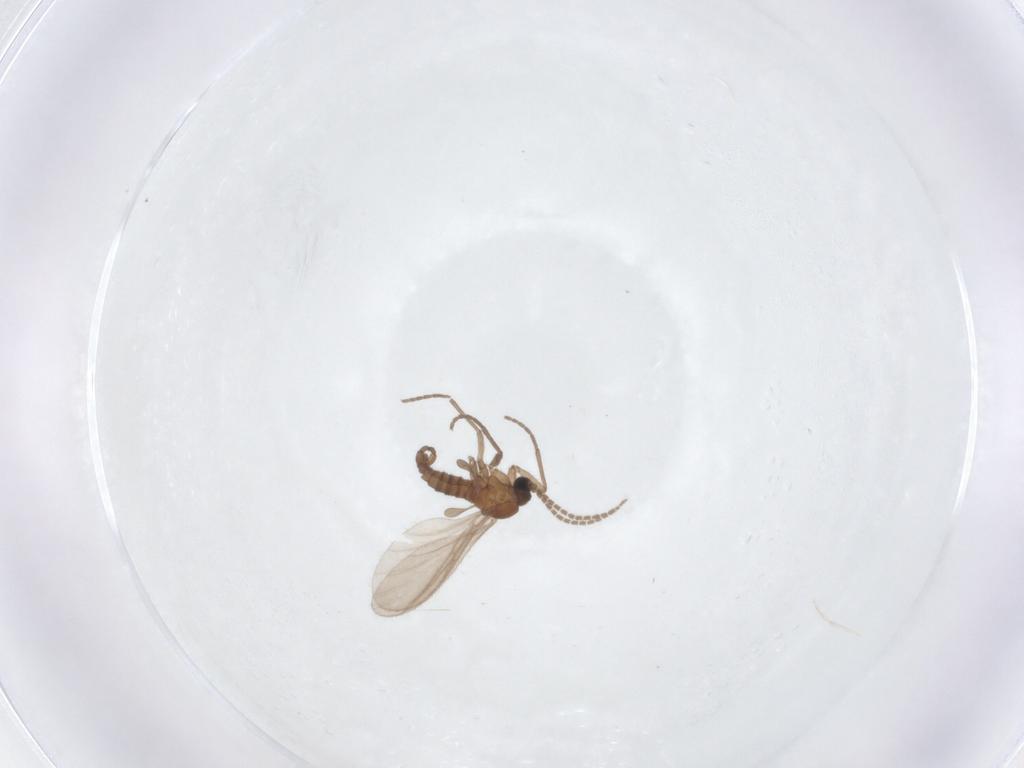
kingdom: Animalia
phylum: Arthropoda
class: Insecta
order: Diptera
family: Sciaridae
